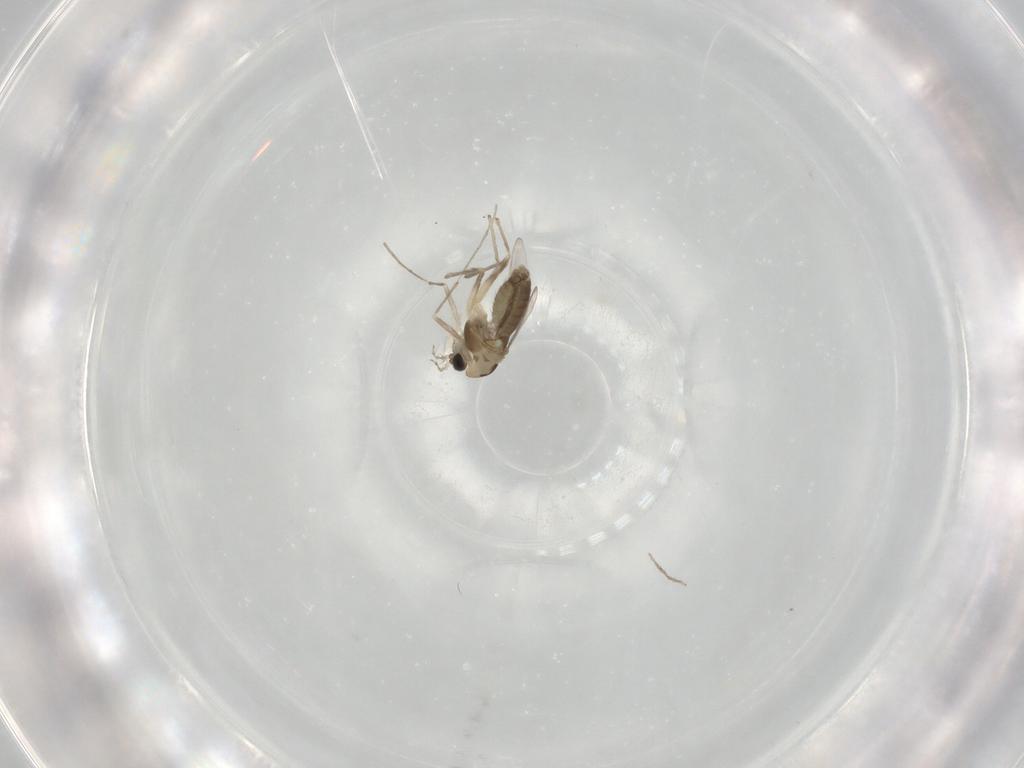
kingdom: Animalia
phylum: Arthropoda
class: Insecta
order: Diptera
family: Chironomidae
